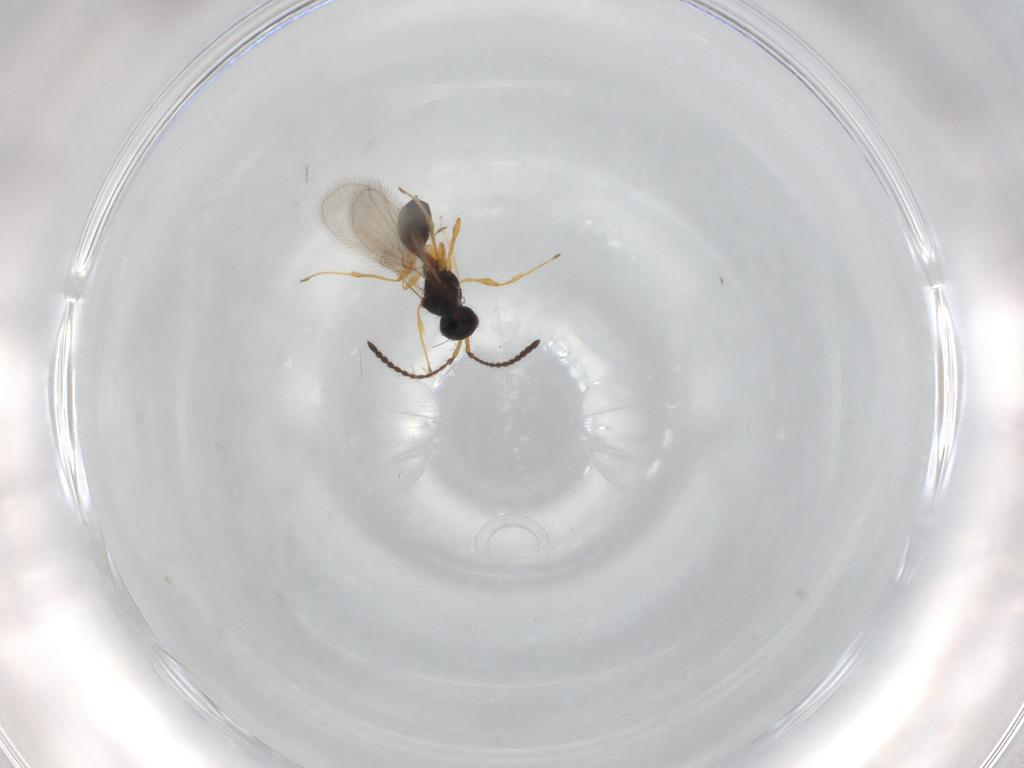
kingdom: Animalia
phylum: Arthropoda
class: Insecta
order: Hymenoptera
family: Diapriidae
